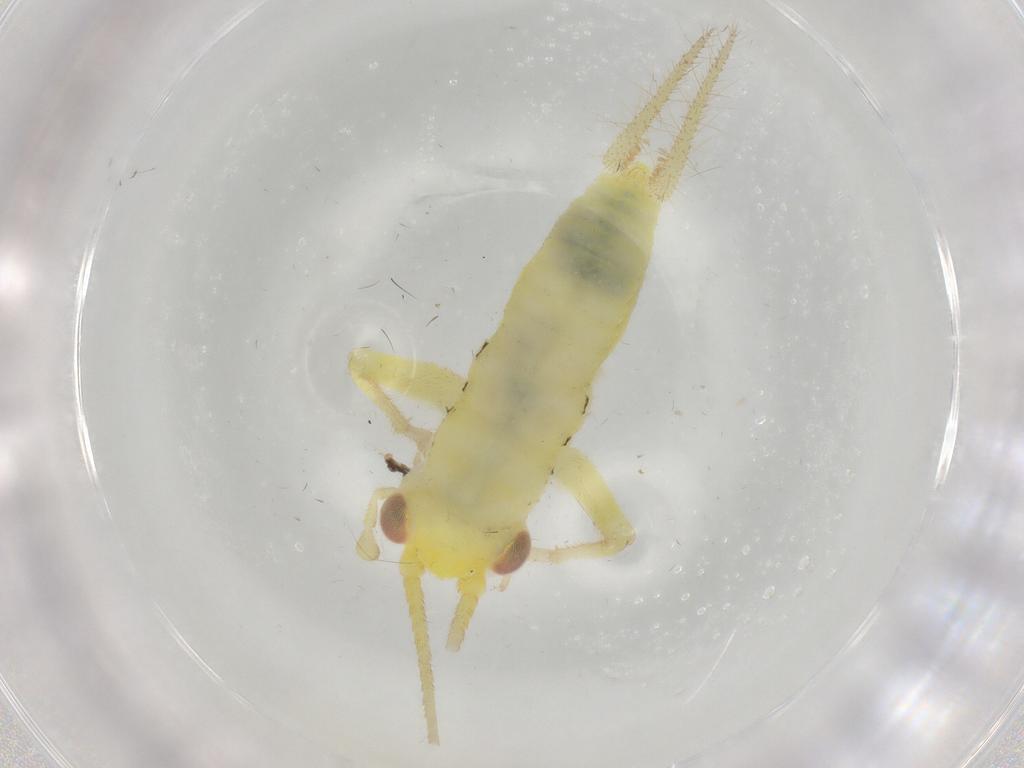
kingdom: Animalia
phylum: Arthropoda
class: Insecta
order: Orthoptera
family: Trigonidiidae
